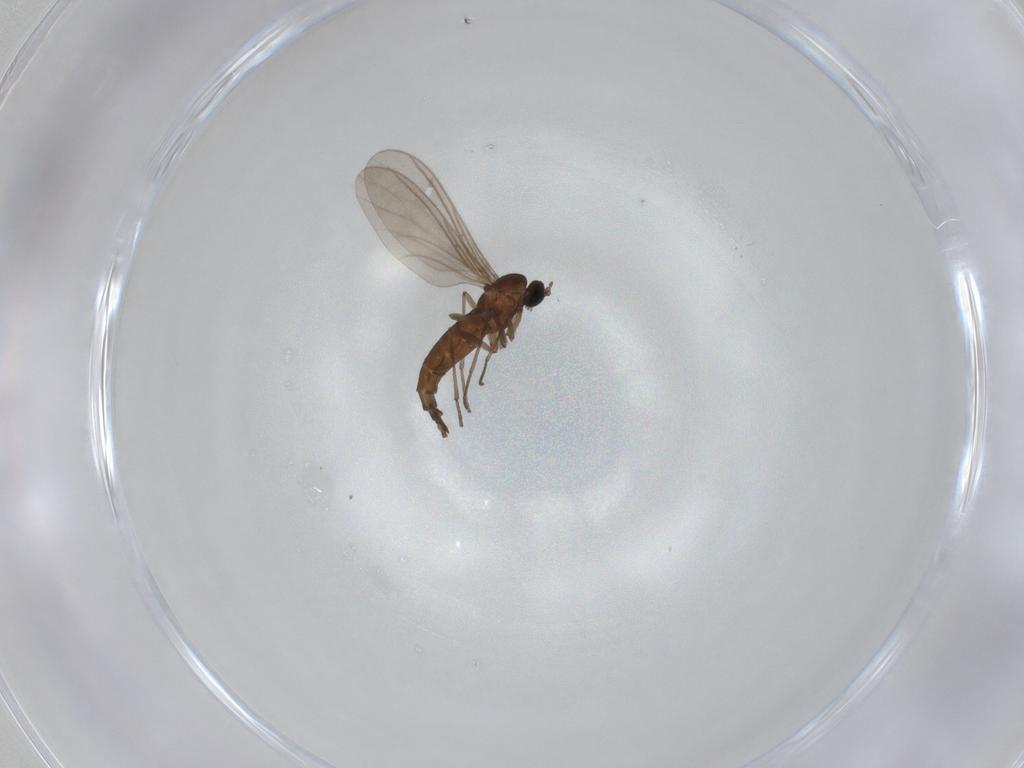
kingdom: Animalia
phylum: Arthropoda
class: Insecta
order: Diptera
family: Sciaridae
